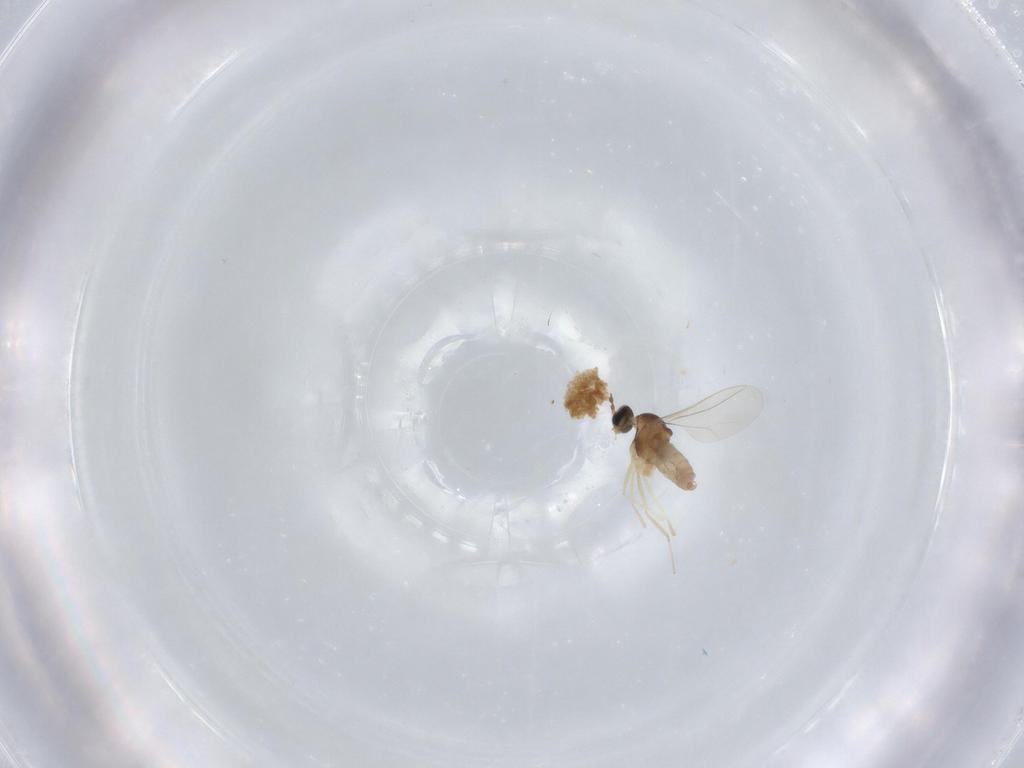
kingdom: Animalia
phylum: Arthropoda
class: Insecta
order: Diptera
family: Cecidomyiidae
